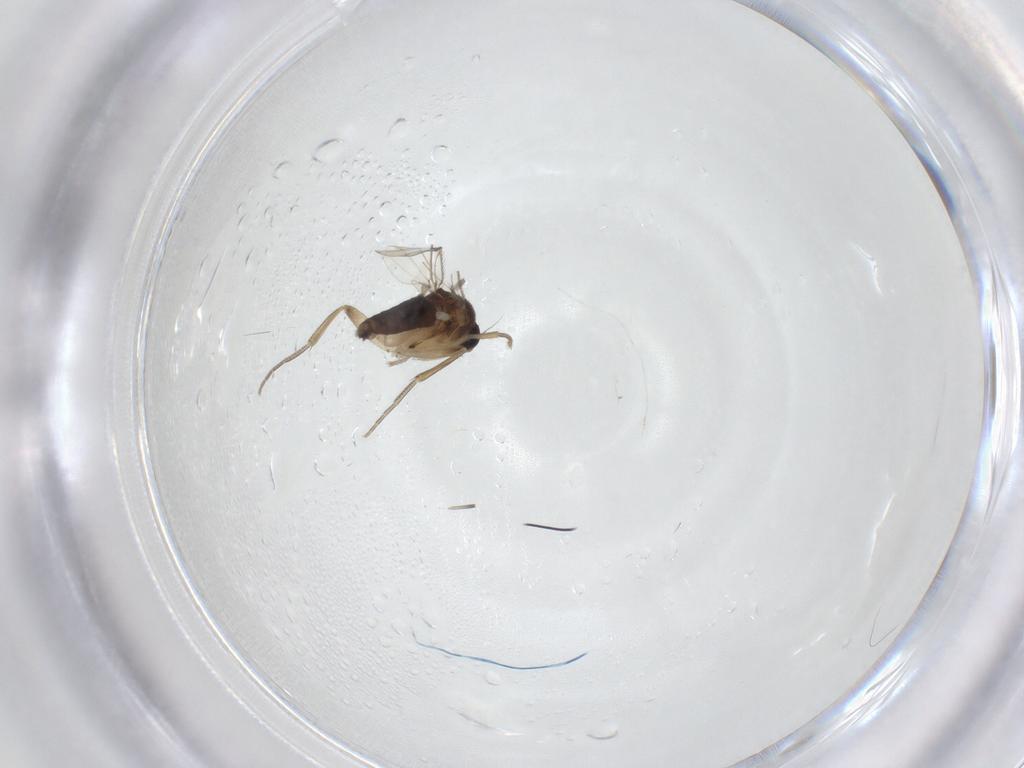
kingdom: Animalia
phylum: Arthropoda
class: Insecta
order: Diptera
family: Phoridae
